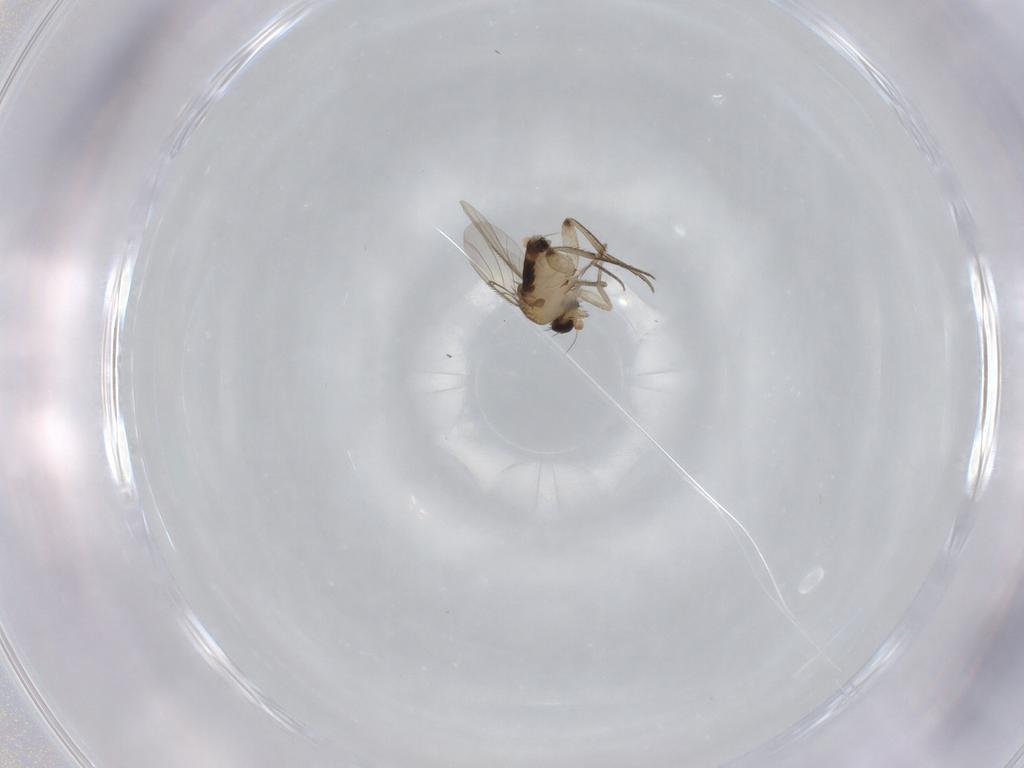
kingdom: Animalia
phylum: Arthropoda
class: Insecta
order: Diptera
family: Phoridae
